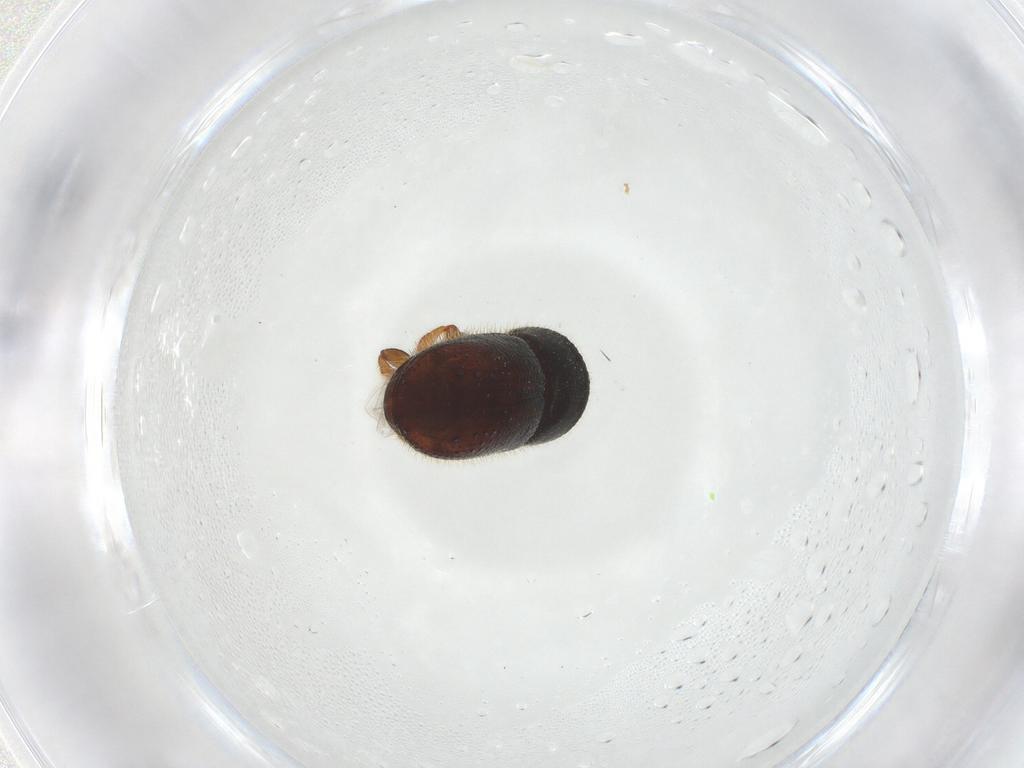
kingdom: Animalia
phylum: Arthropoda
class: Insecta
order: Coleoptera
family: Curculionidae
